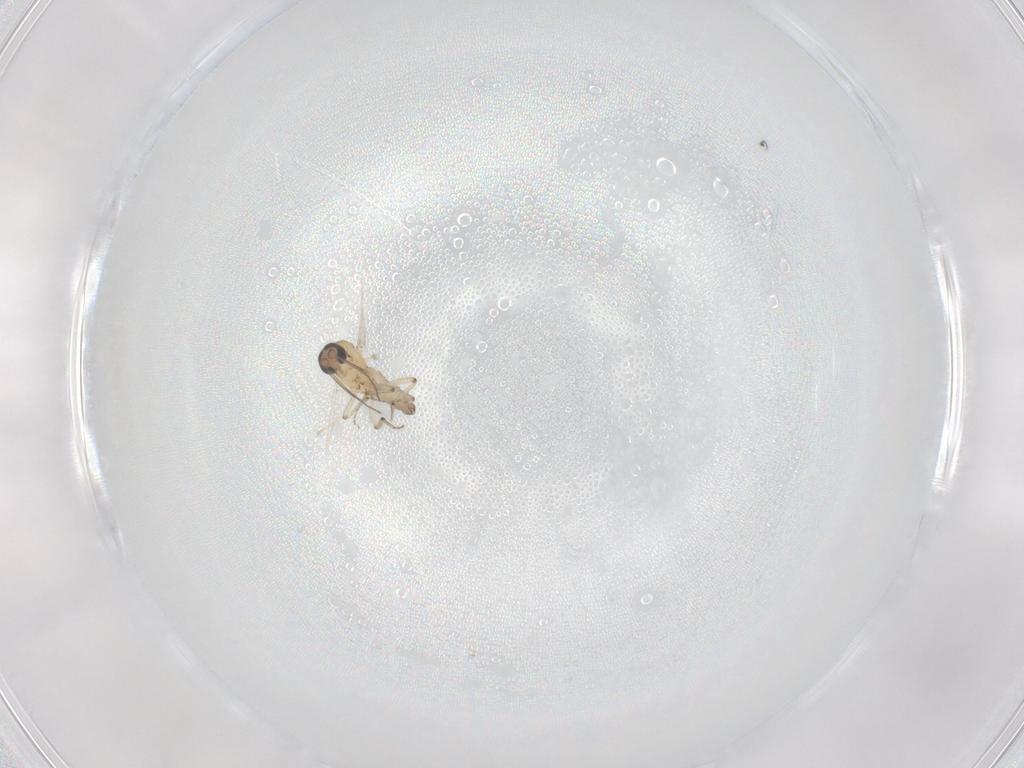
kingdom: Animalia
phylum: Arthropoda
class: Insecta
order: Diptera
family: Ceratopogonidae
